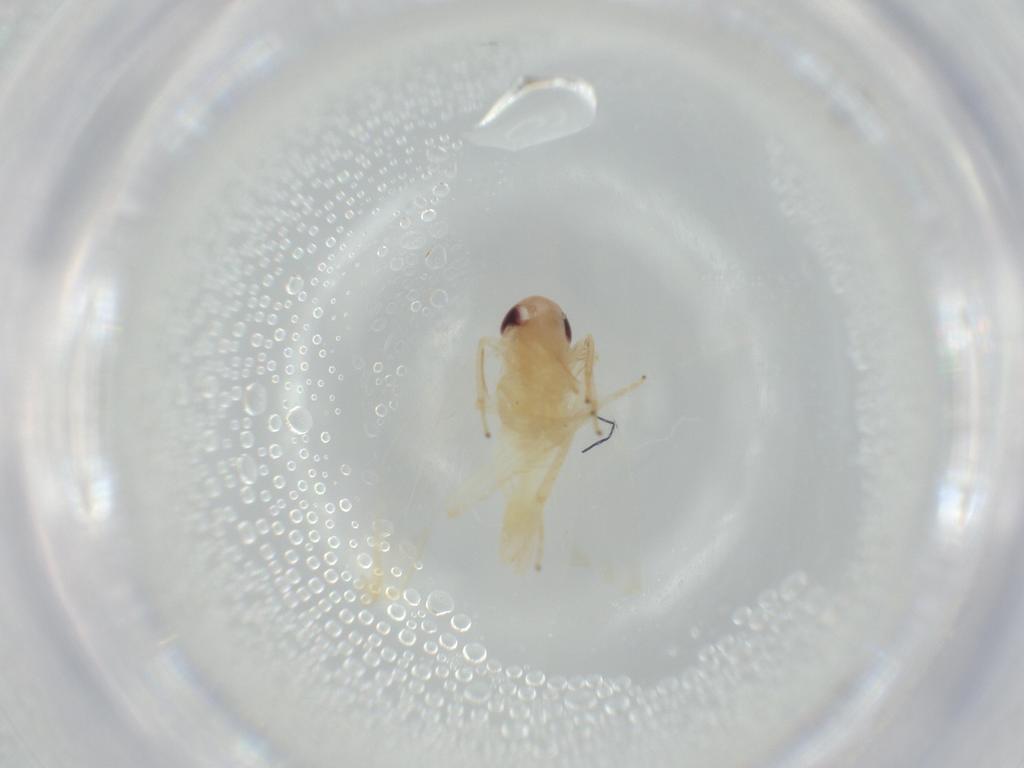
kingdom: Animalia
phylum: Arthropoda
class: Insecta
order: Hemiptera
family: Cicadellidae
